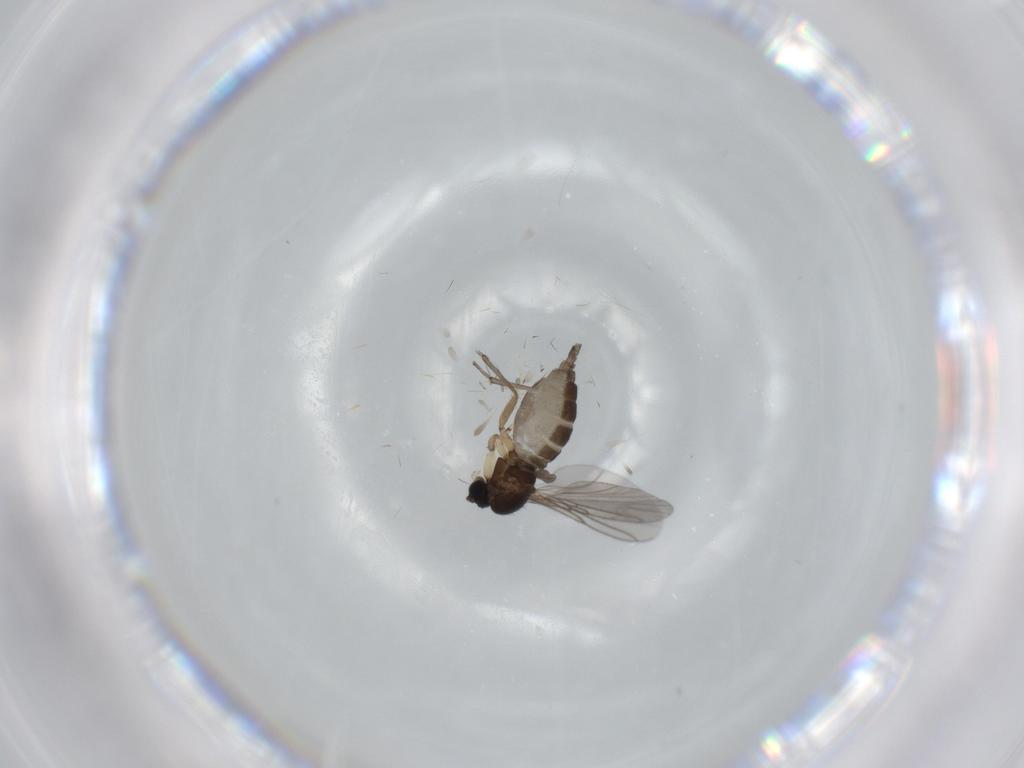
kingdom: Animalia
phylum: Arthropoda
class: Insecta
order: Diptera
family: Sciaridae
